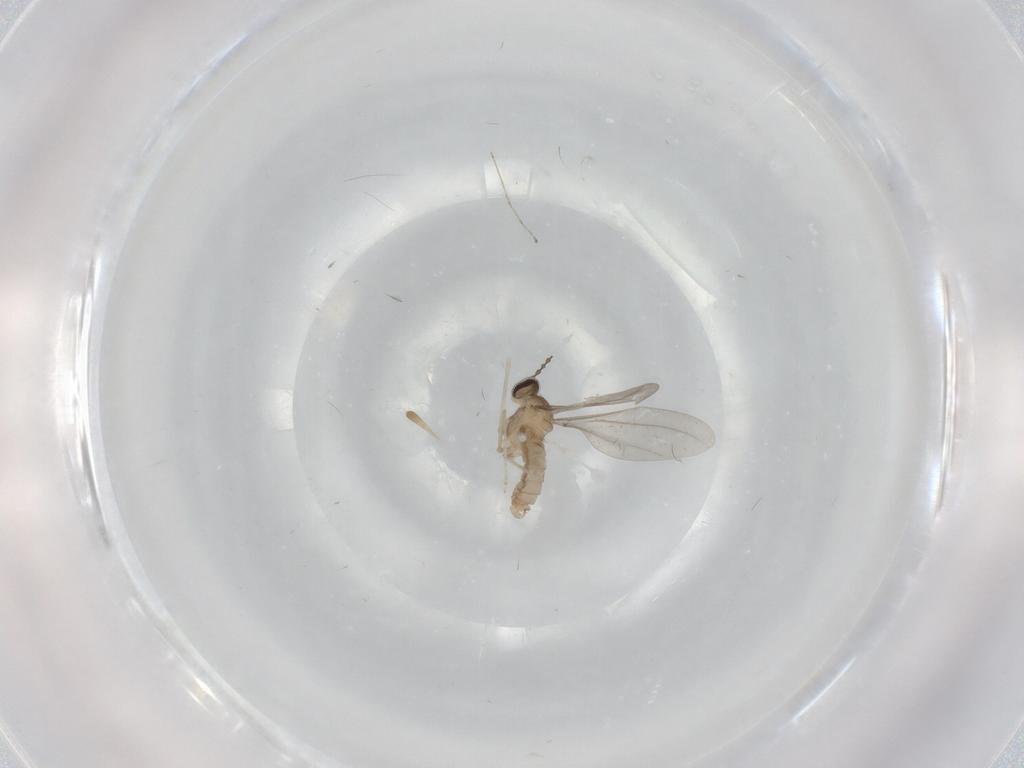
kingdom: Animalia
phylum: Arthropoda
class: Insecta
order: Diptera
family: Cecidomyiidae
